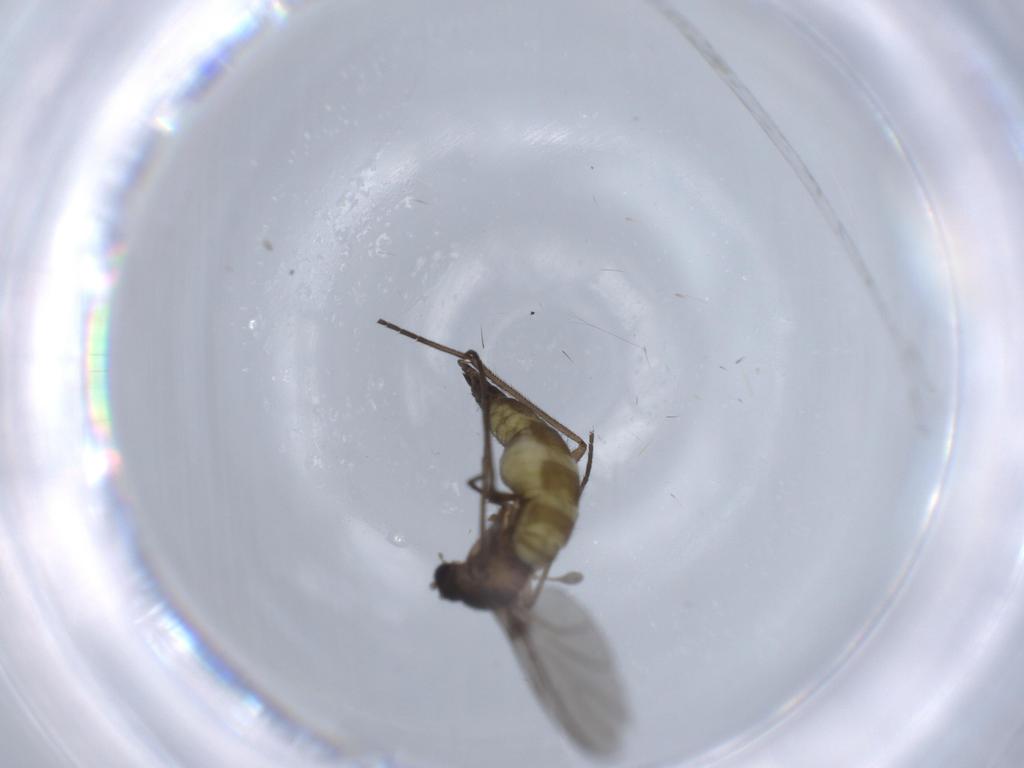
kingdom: Animalia
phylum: Arthropoda
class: Insecta
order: Diptera
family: Sciaridae
